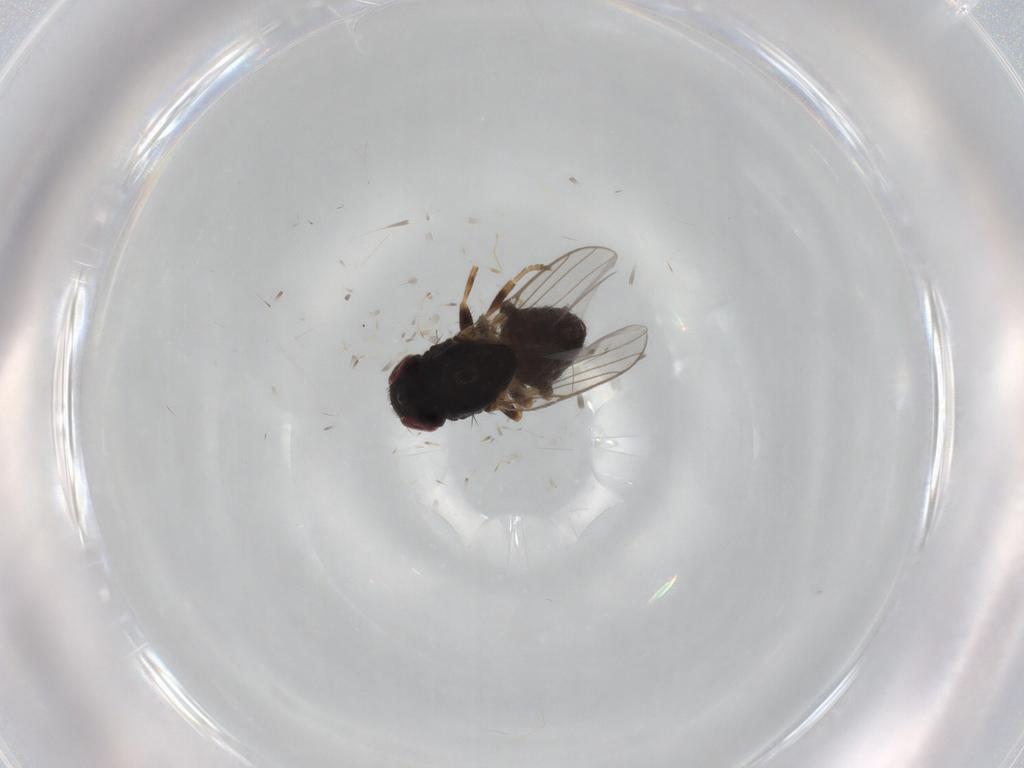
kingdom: Animalia
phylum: Arthropoda
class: Insecta
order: Diptera
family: Chloropidae
